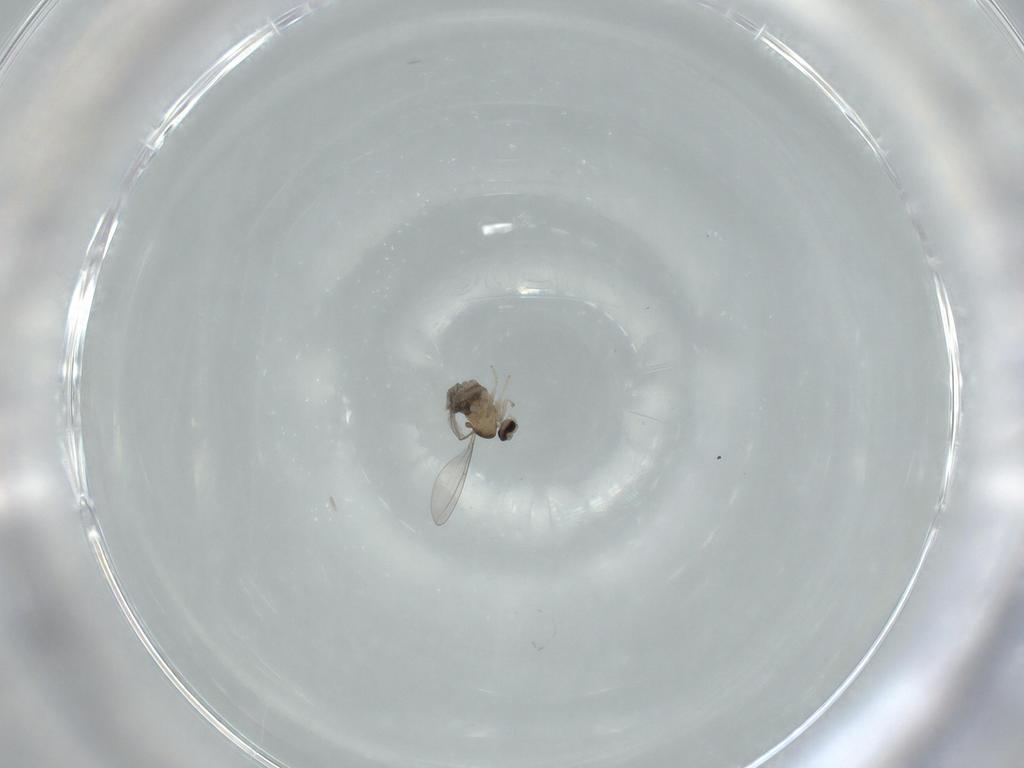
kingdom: Animalia
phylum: Arthropoda
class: Insecta
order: Diptera
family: Cecidomyiidae
